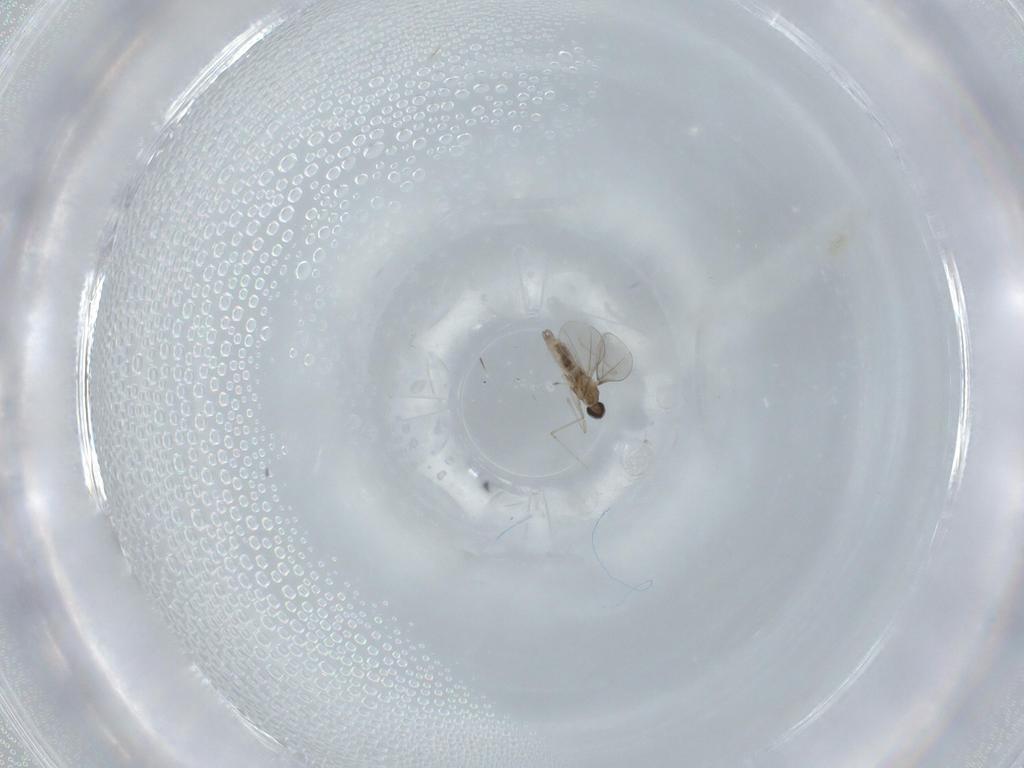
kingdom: Animalia
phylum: Arthropoda
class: Insecta
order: Diptera
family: Cecidomyiidae
